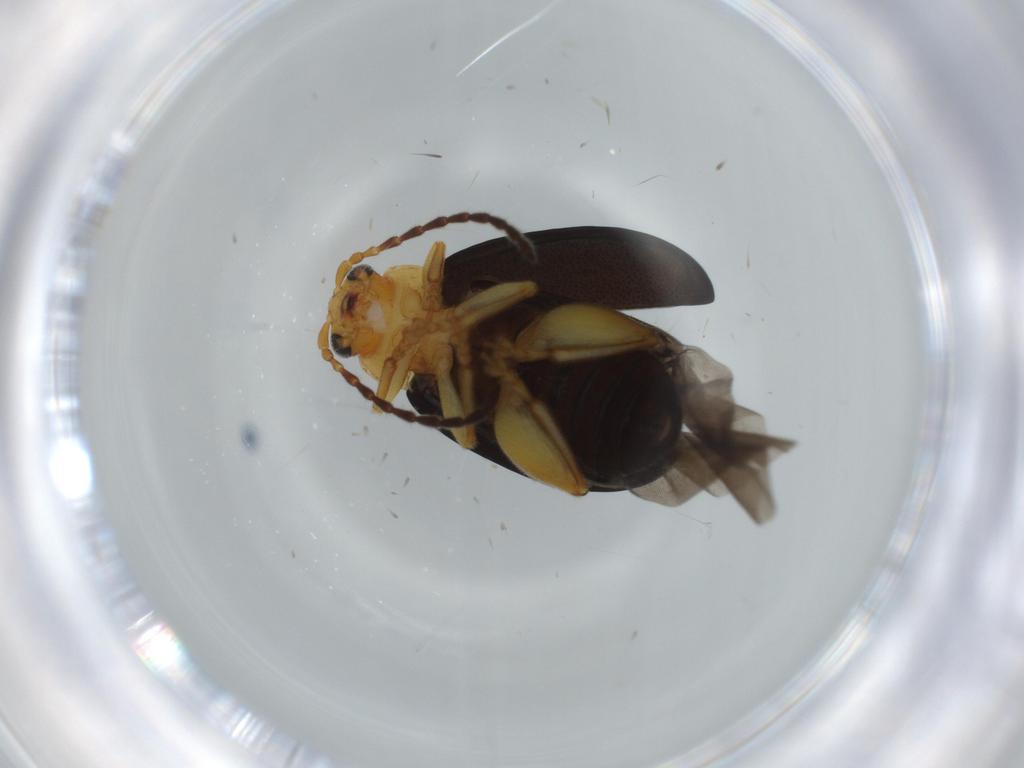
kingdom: Animalia
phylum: Arthropoda
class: Insecta
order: Coleoptera
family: Chrysomelidae
